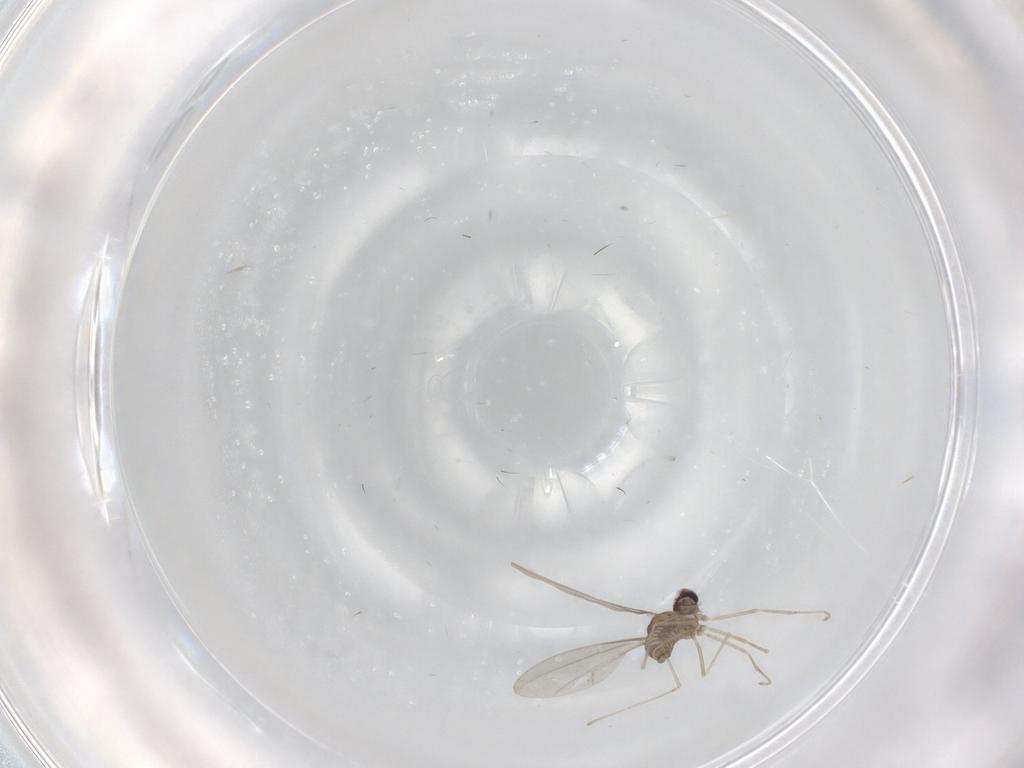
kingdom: Animalia
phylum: Arthropoda
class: Insecta
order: Diptera
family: Cecidomyiidae
